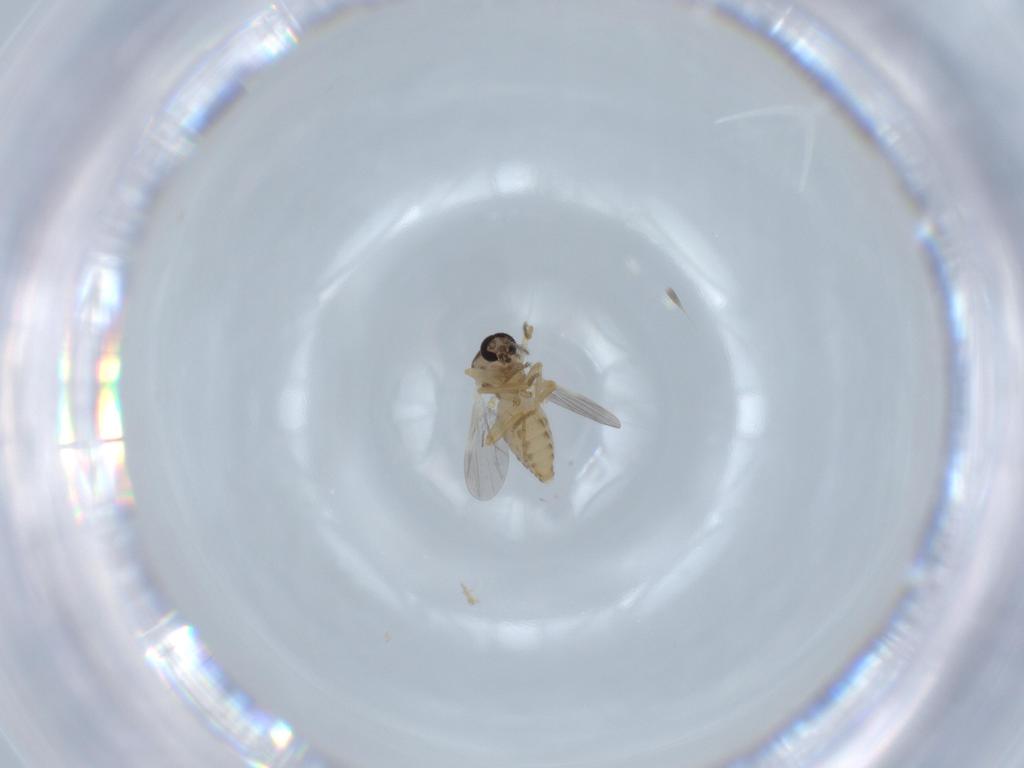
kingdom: Animalia
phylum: Arthropoda
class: Insecta
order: Diptera
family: Ceratopogonidae
